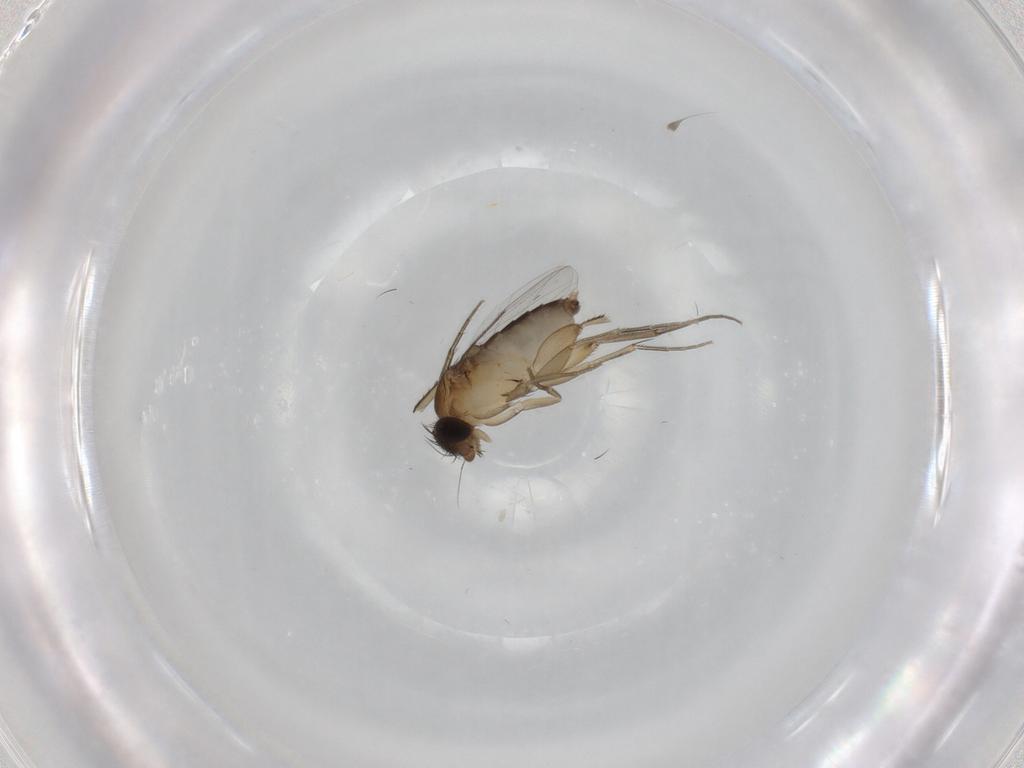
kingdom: Animalia
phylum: Arthropoda
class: Insecta
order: Diptera
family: Phoridae
